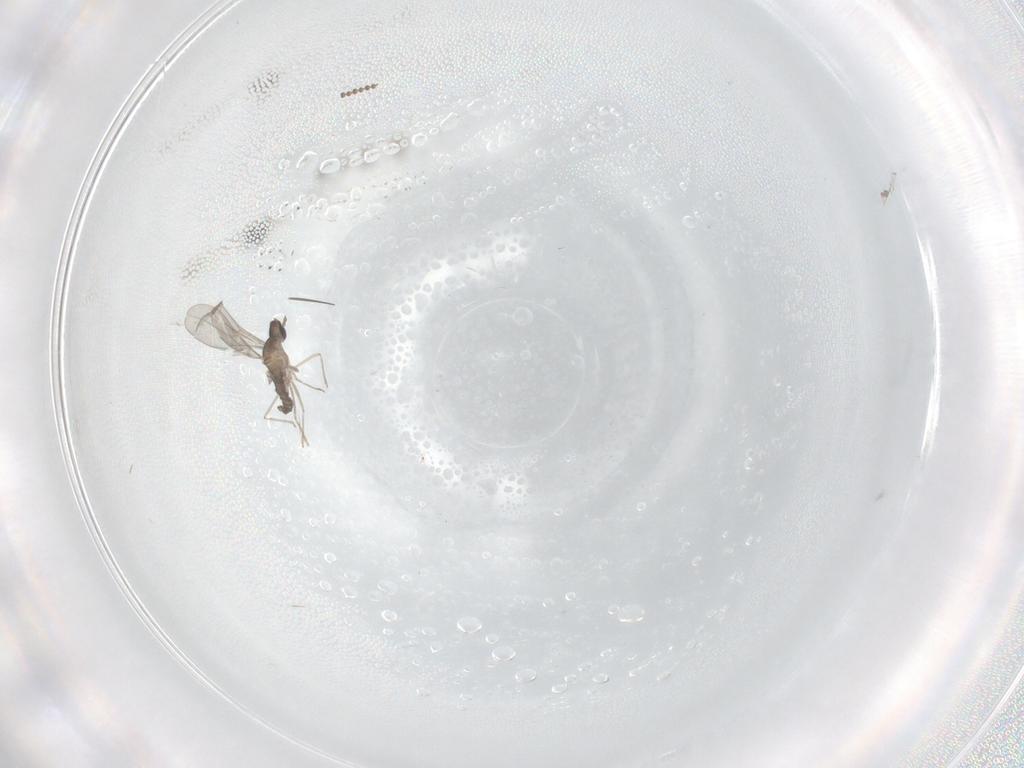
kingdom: Animalia
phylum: Arthropoda
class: Insecta
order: Diptera
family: Cecidomyiidae
